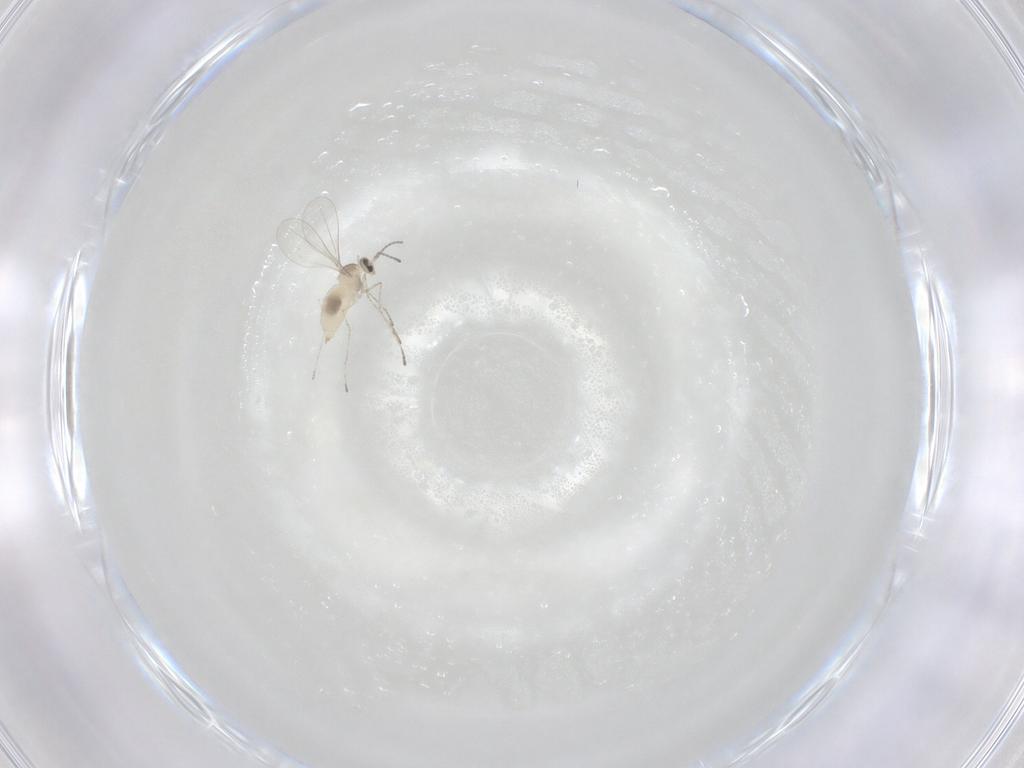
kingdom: Animalia
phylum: Arthropoda
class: Insecta
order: Diptera
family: Cecidomyiidae
